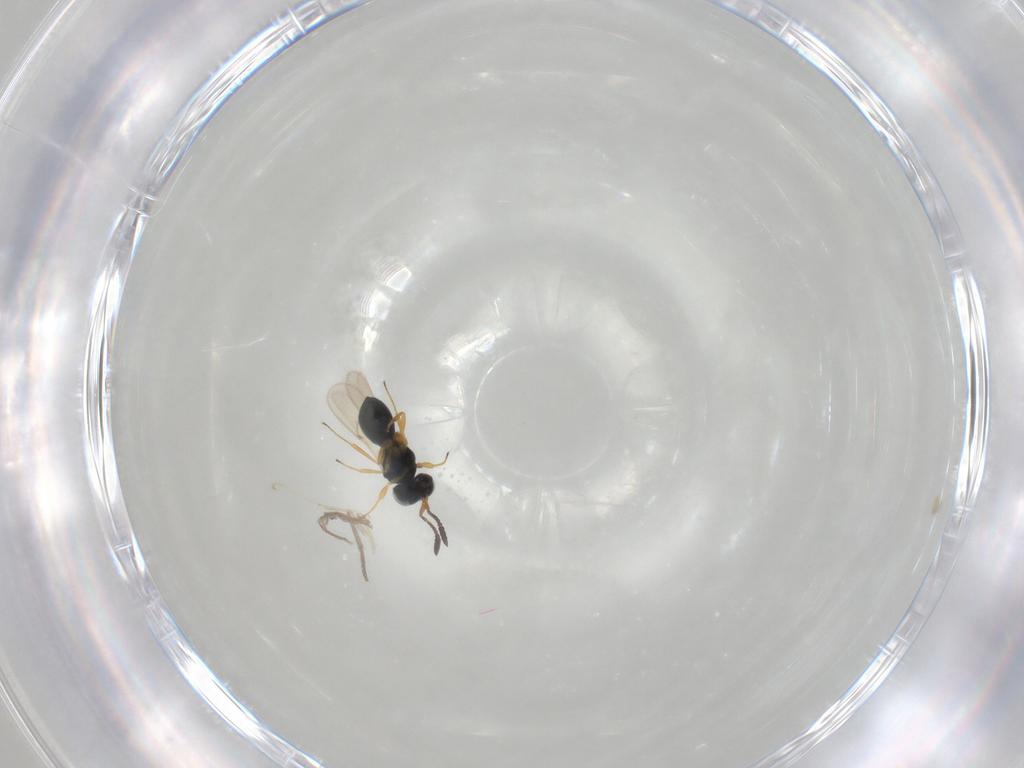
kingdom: Animalia
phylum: Arthropoda
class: Insecta
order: Hymenoptera
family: Scelionidae
